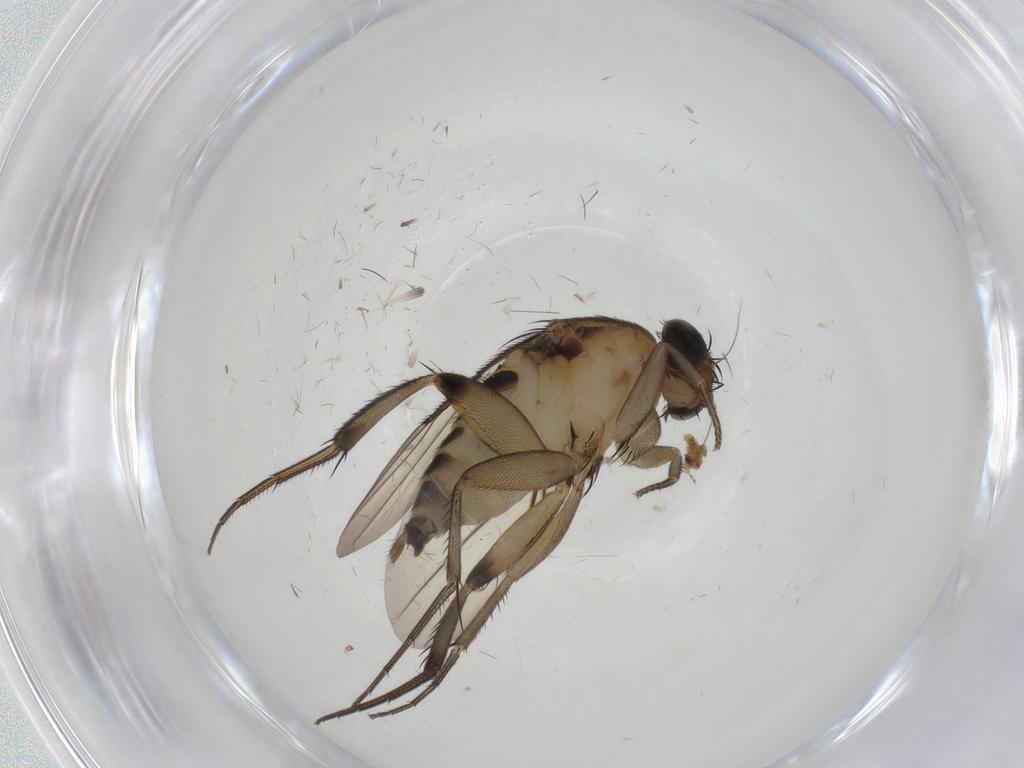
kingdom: Animalia
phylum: Arthropoda
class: Insecta
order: Diptera
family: Phoridae
